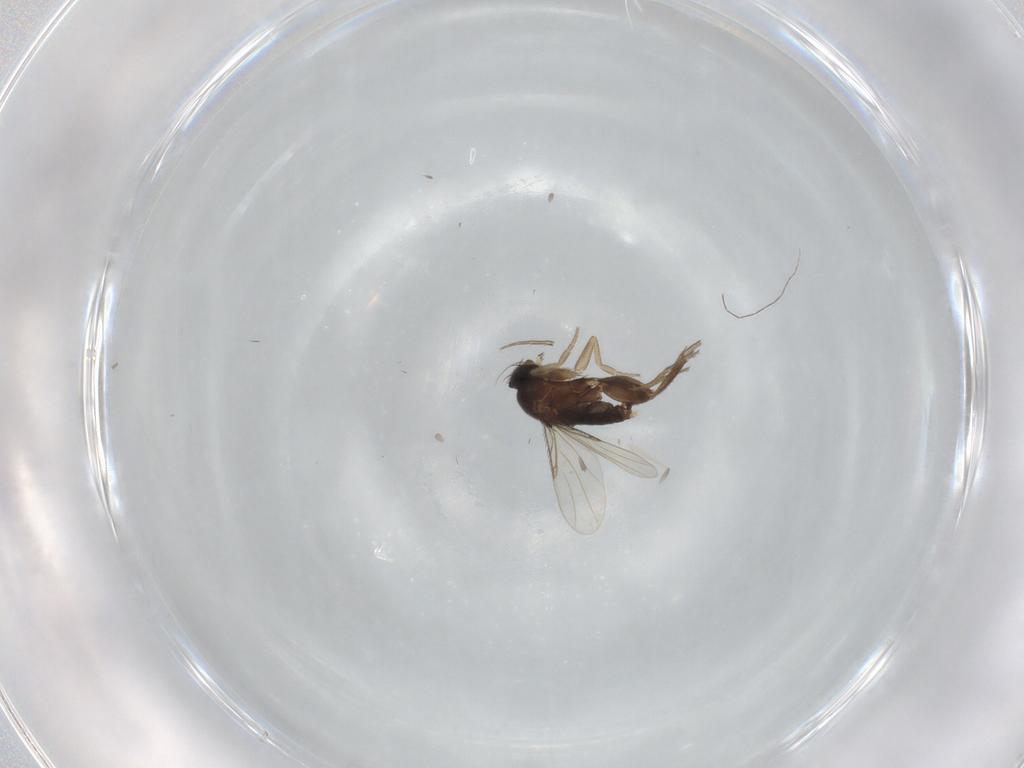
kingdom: Animalia
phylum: Arthropoda
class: Insecta
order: Diptera
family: Phoridae
